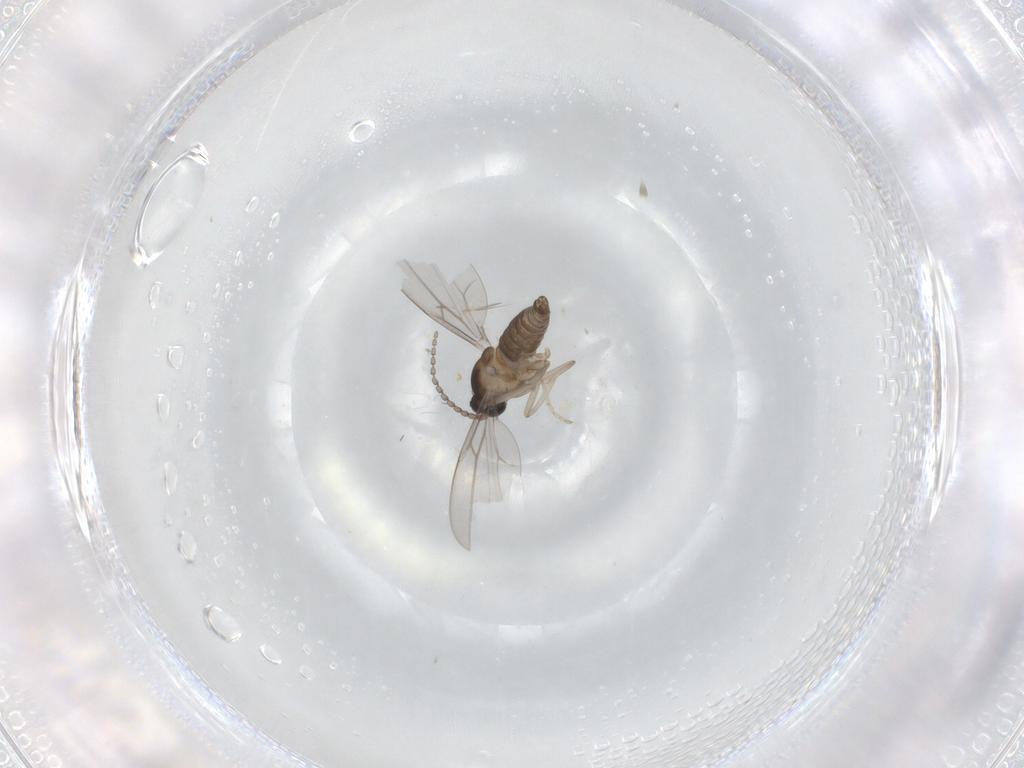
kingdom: Animalia
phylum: Arthropoda
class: Insecta
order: Diptera
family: Cecidomyiidae
